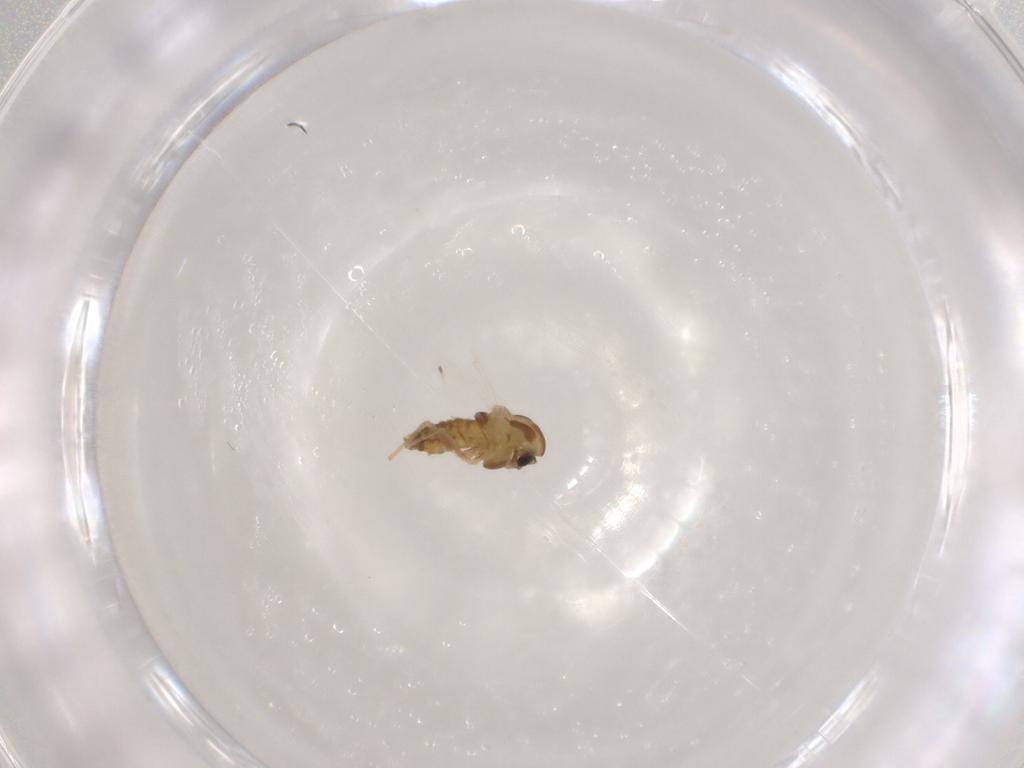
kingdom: Animalia
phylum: Arthropoda
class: Insecta
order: Diptera
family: Chironomidae
